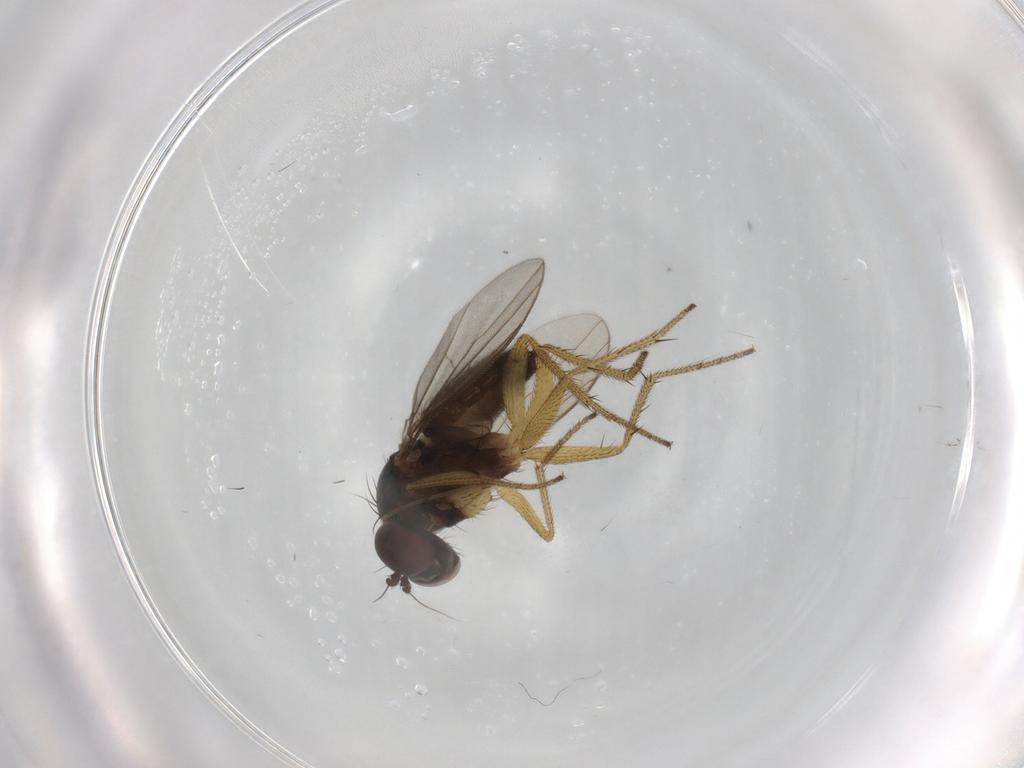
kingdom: Animalia
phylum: Arthropoda
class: Insecta
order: Diptera
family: Dolichopodidae
